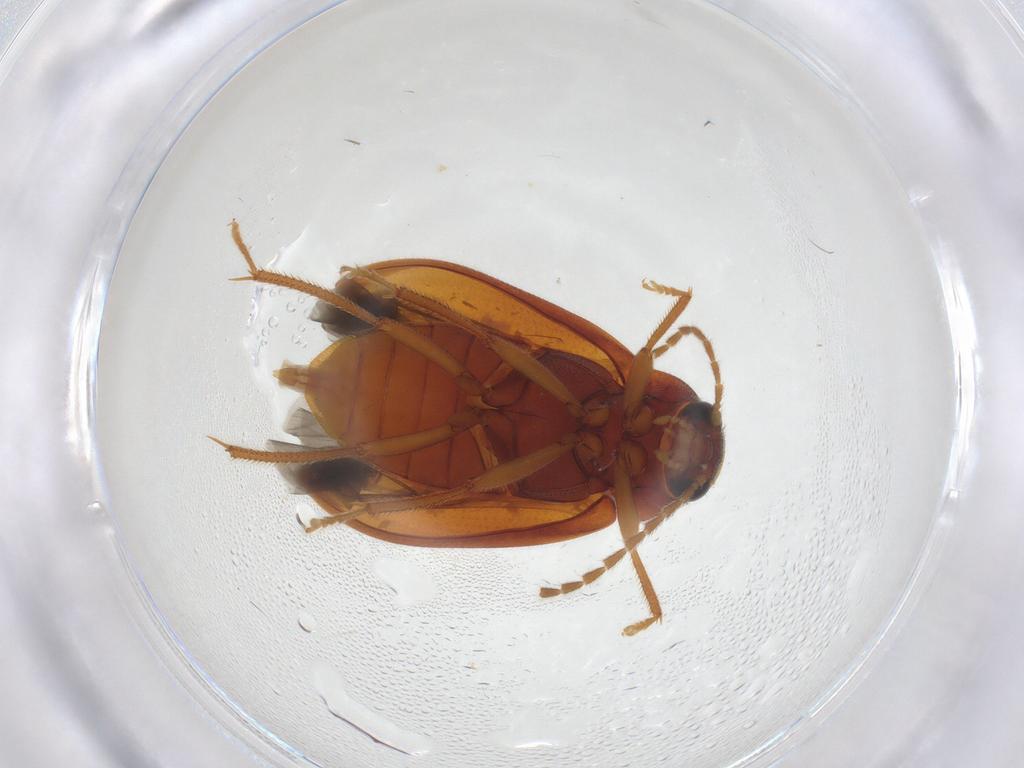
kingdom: Animalia
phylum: Arthropoda
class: Insecta
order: Coleoptera
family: Ptilodactylidae
